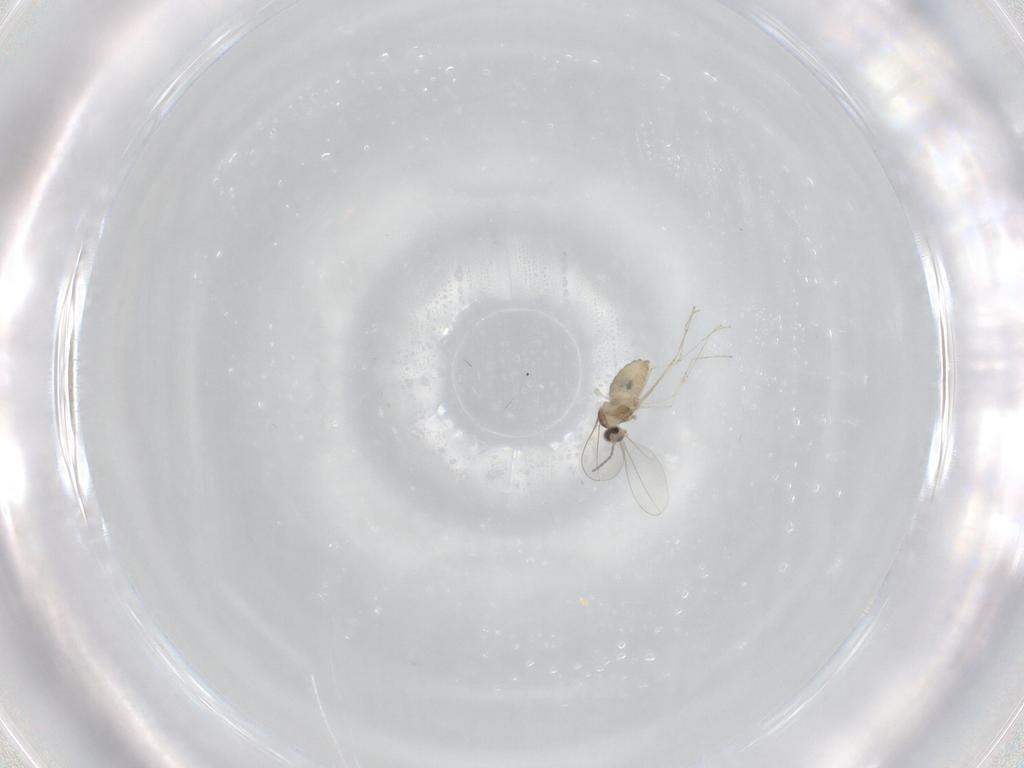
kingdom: Animalia
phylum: Arthropoda
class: Insecta
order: Diptera
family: Cecidomyiidae
